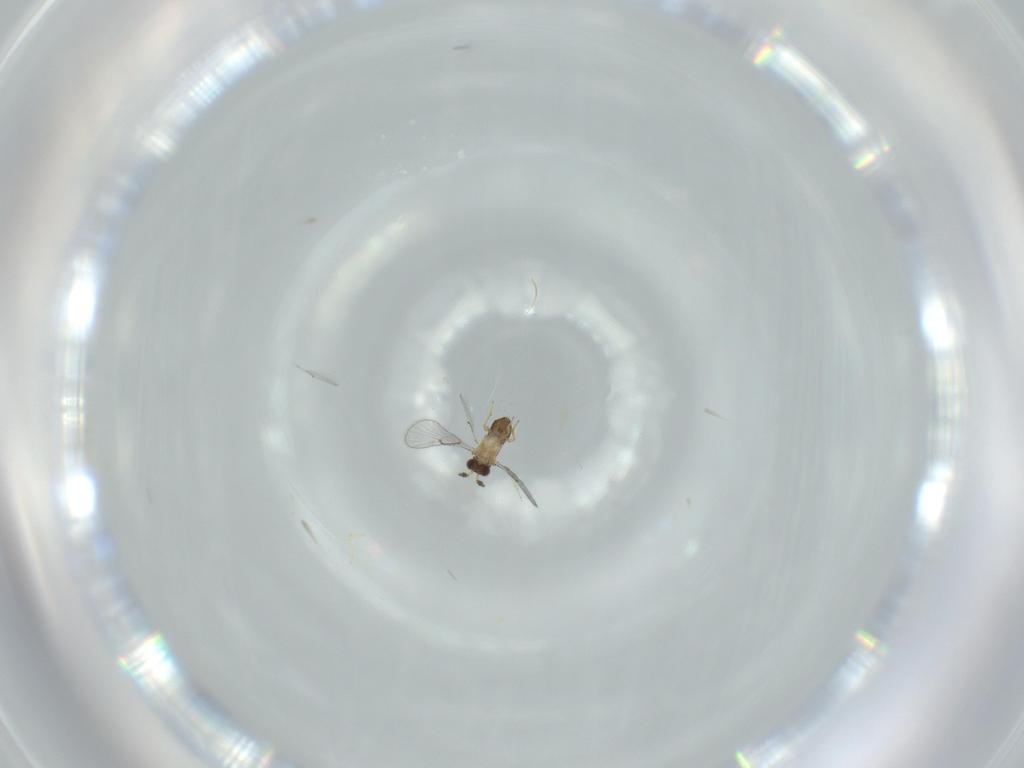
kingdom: Animalia
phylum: Arthropoda
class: Insecta
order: Hymenoptera
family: Trichogrammatidae
